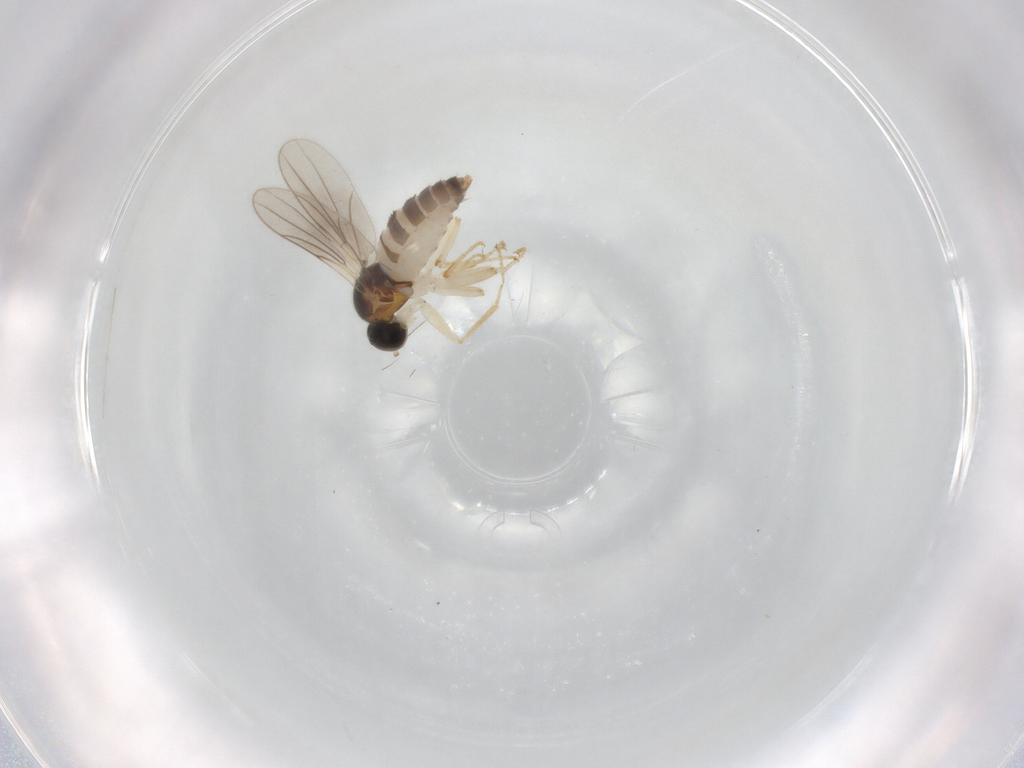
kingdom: Animalia
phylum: Arthropoda
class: Insecta
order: Diptera
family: Hybotidae
